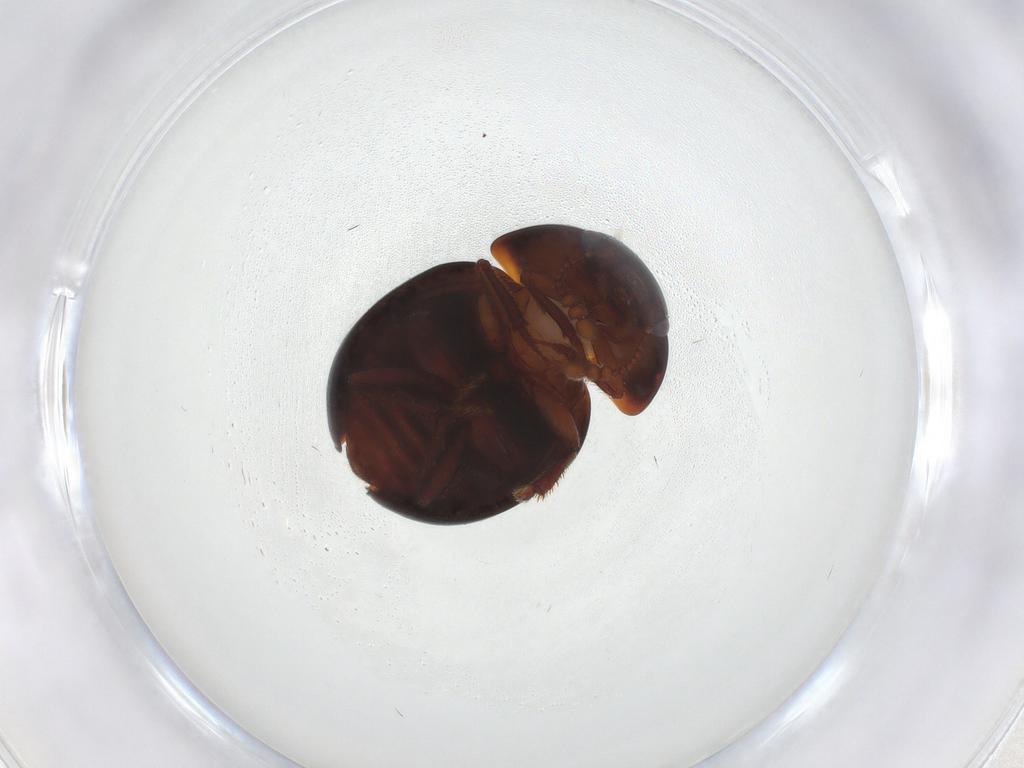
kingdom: Animalia
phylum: Arthropoda
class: Insecta
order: Coleoptera
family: Leiodidae
